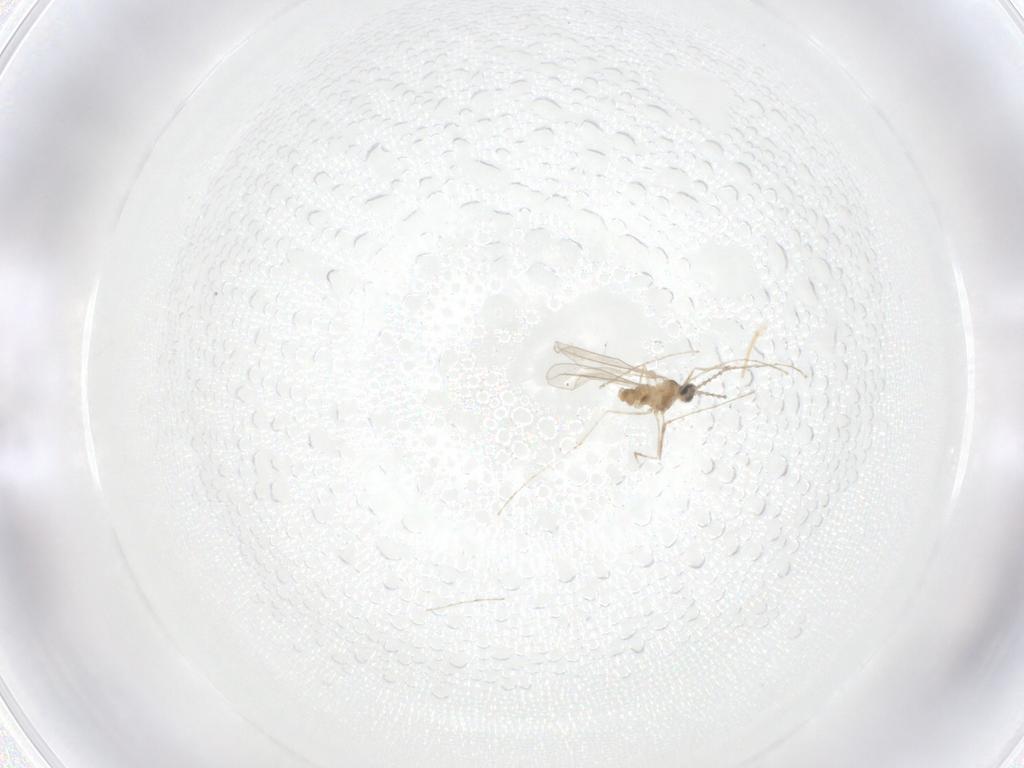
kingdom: Animalia
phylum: Arthropoda
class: Insecta
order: Diptera
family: Cecidomyiidae
